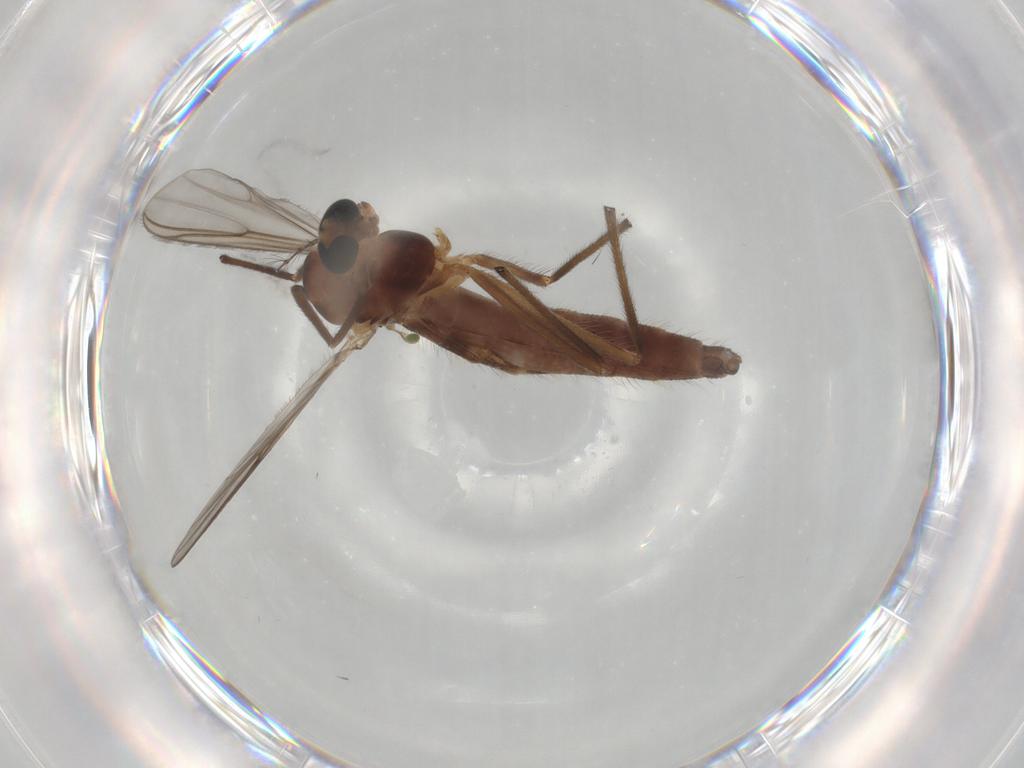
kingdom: Animalia
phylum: Arthropoda
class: Insecta
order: Diptera
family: Chironomidae
